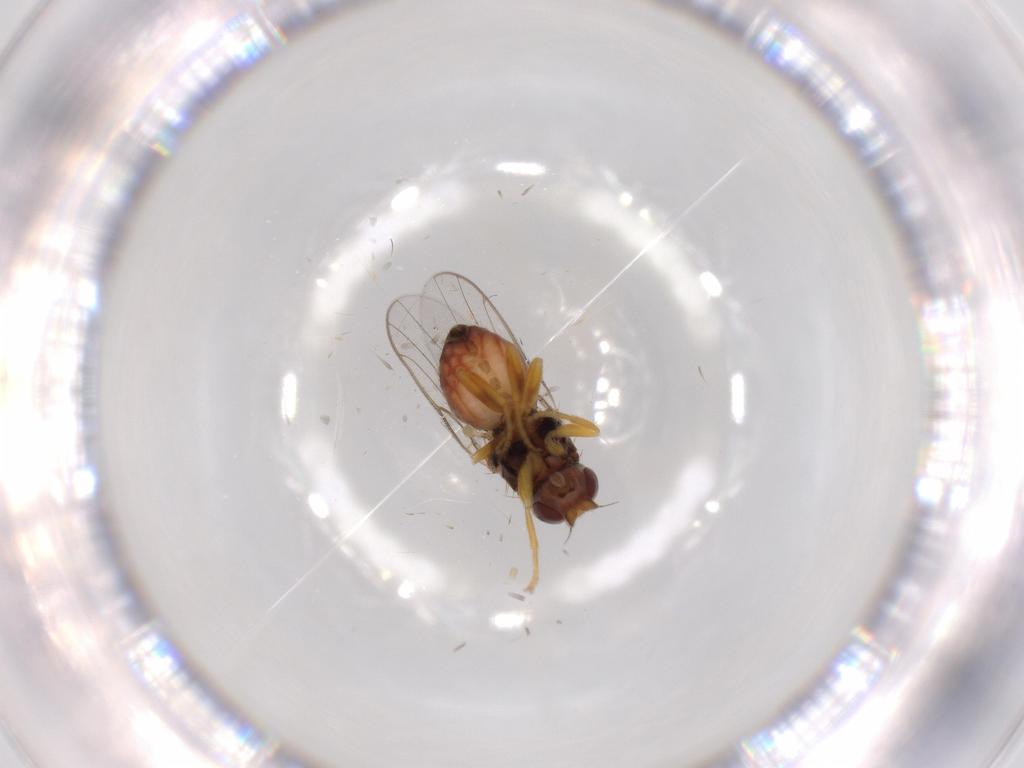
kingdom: Animalia
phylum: Arthropoda
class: Insecta
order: Diptera
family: Chloropidae
